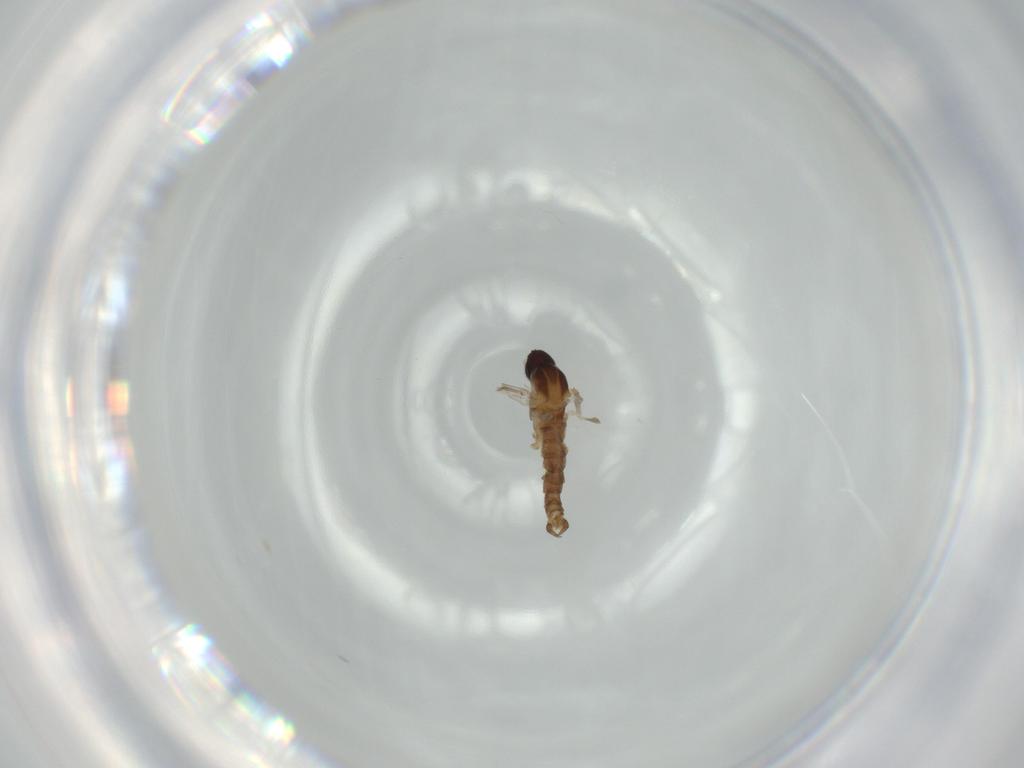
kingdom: Animalia
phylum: Arthropoda
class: Insecta
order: Diptera
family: Cecidomyiidae
